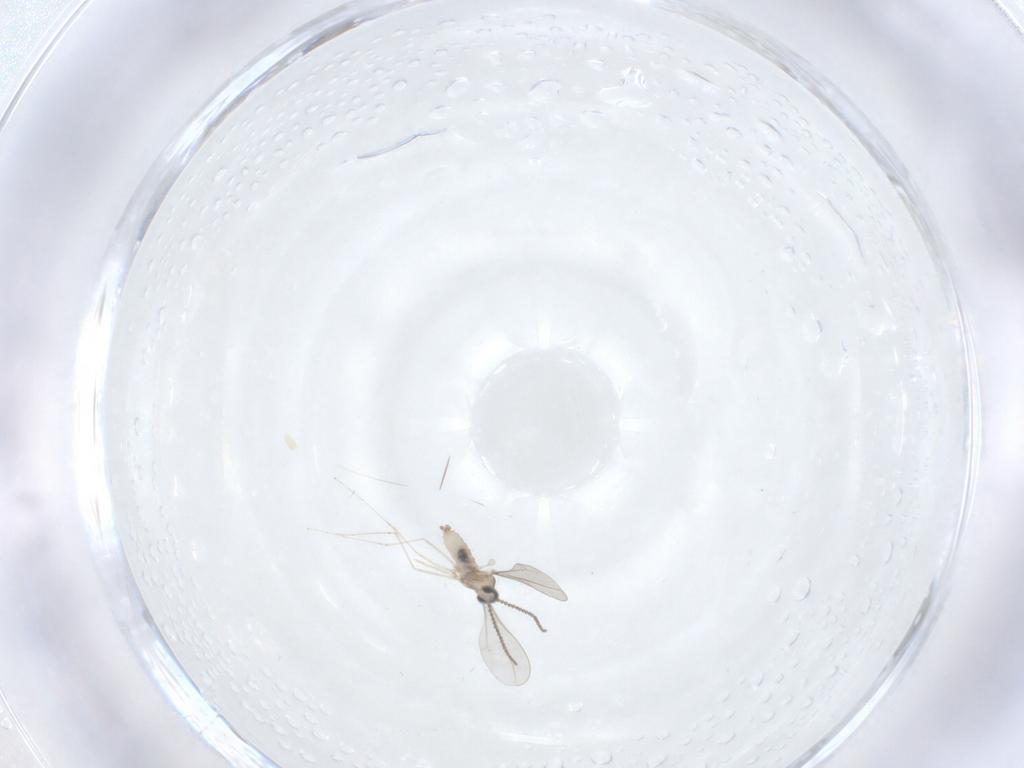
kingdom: Animalia
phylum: Arthropoda
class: Insecta
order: Diptera
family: Cecidomyiidae
